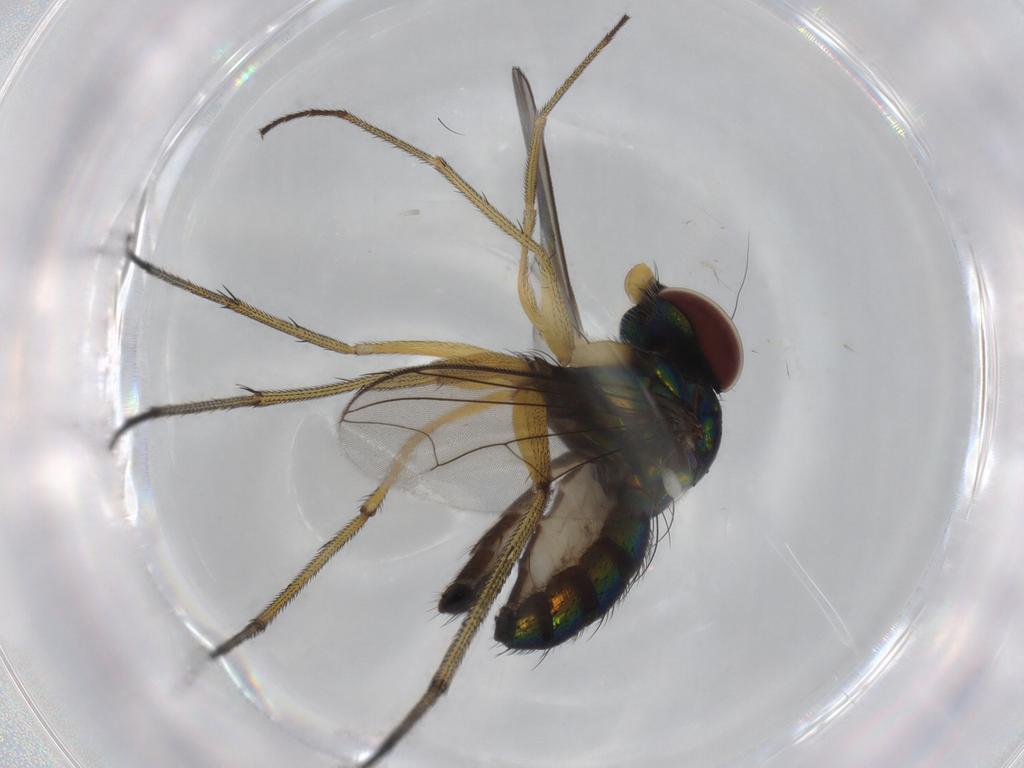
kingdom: Animalia
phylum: Arthropoda
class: Insecta
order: Diptera
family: Dolichopodidae
